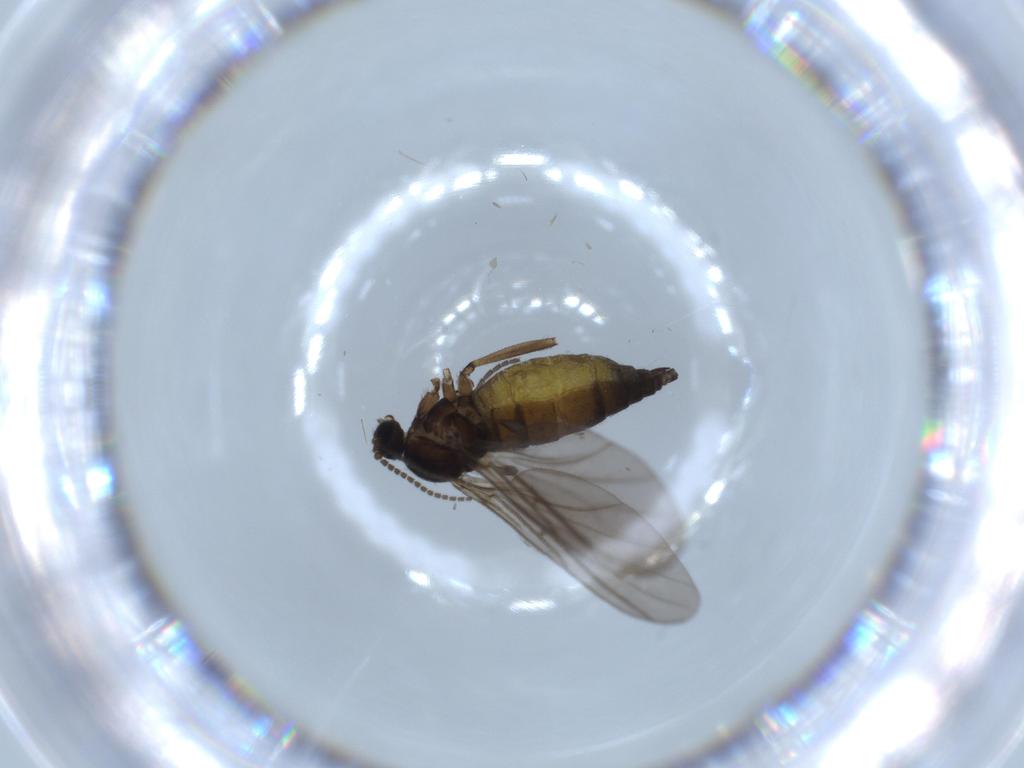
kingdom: Animalia
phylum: Arthropoda
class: Insecta
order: Diptera
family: Sciaridae
